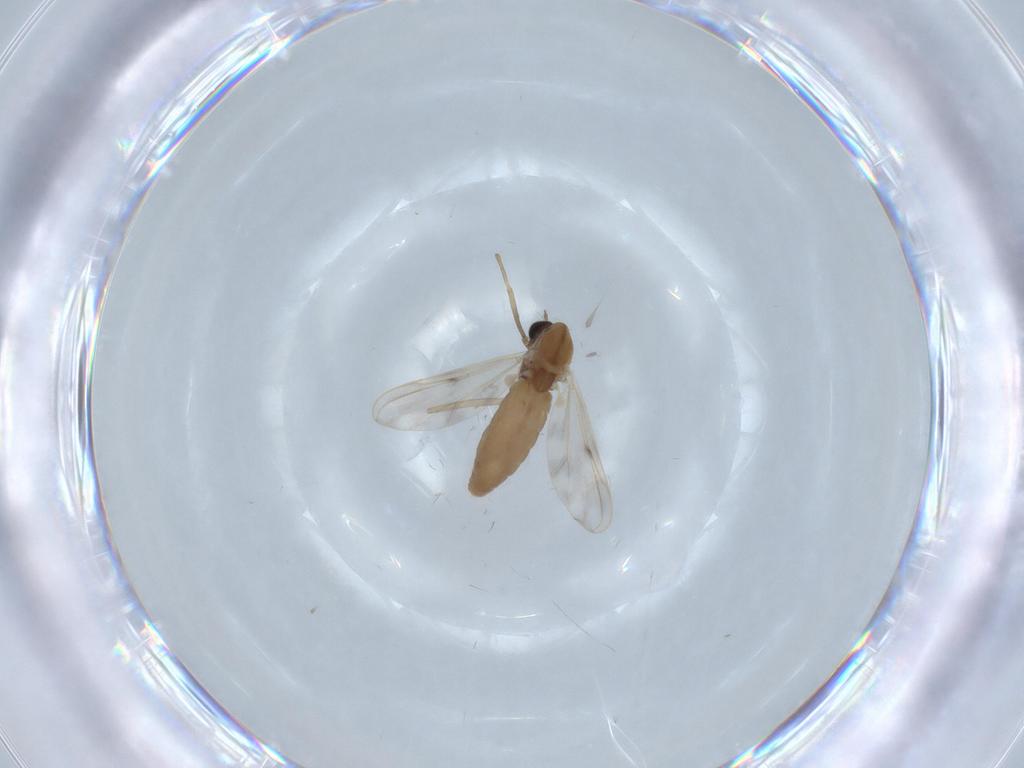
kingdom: Animalia
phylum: Arthropoda
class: Insecta
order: Diptera
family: Chironomidae
